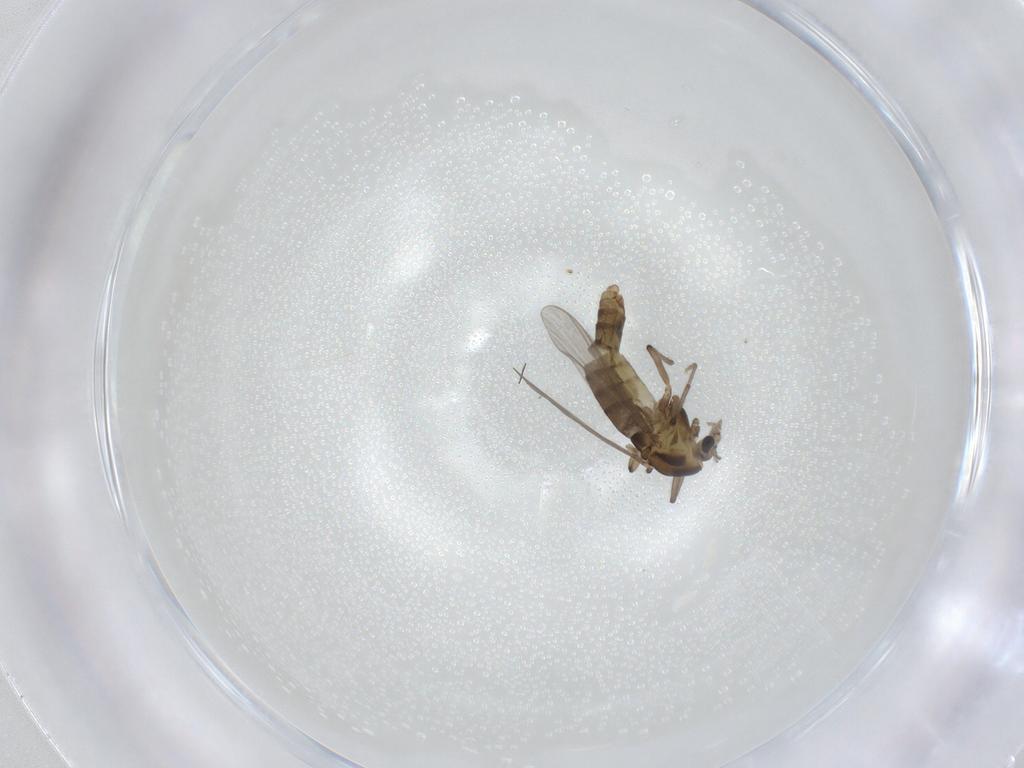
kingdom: Animalia
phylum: Arthropoda
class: Insecta
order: Diptera
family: Chironomidae
